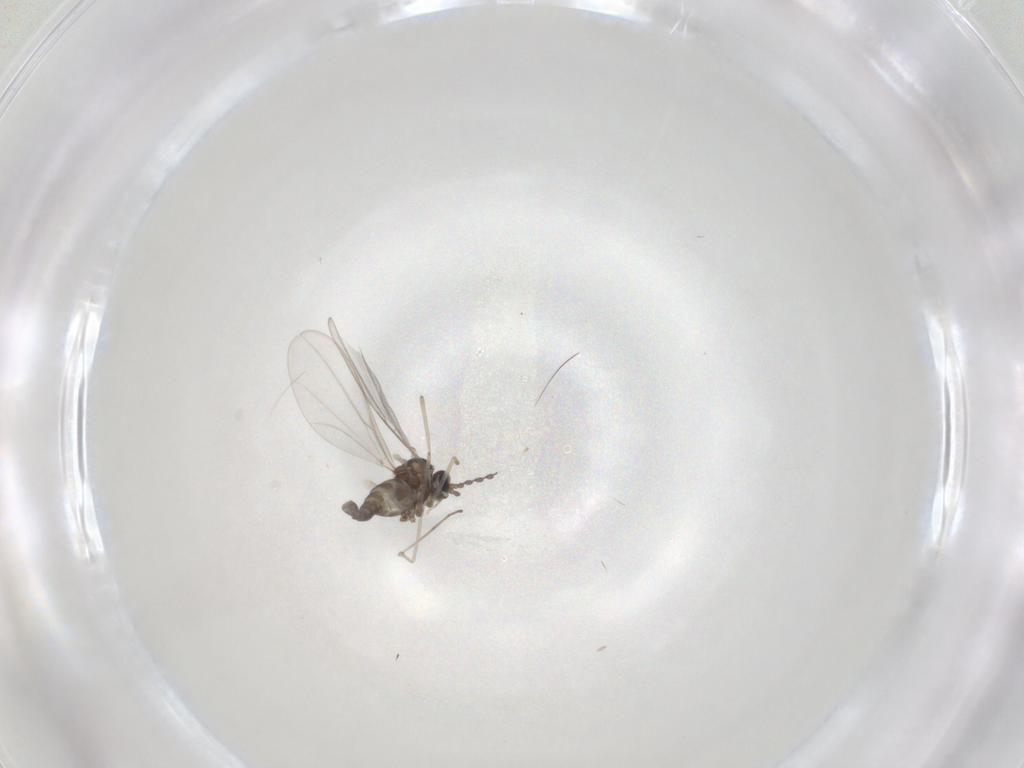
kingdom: Animalia
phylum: Arthropoda
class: Insecta
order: Diptera
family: Cecidomyiidae
